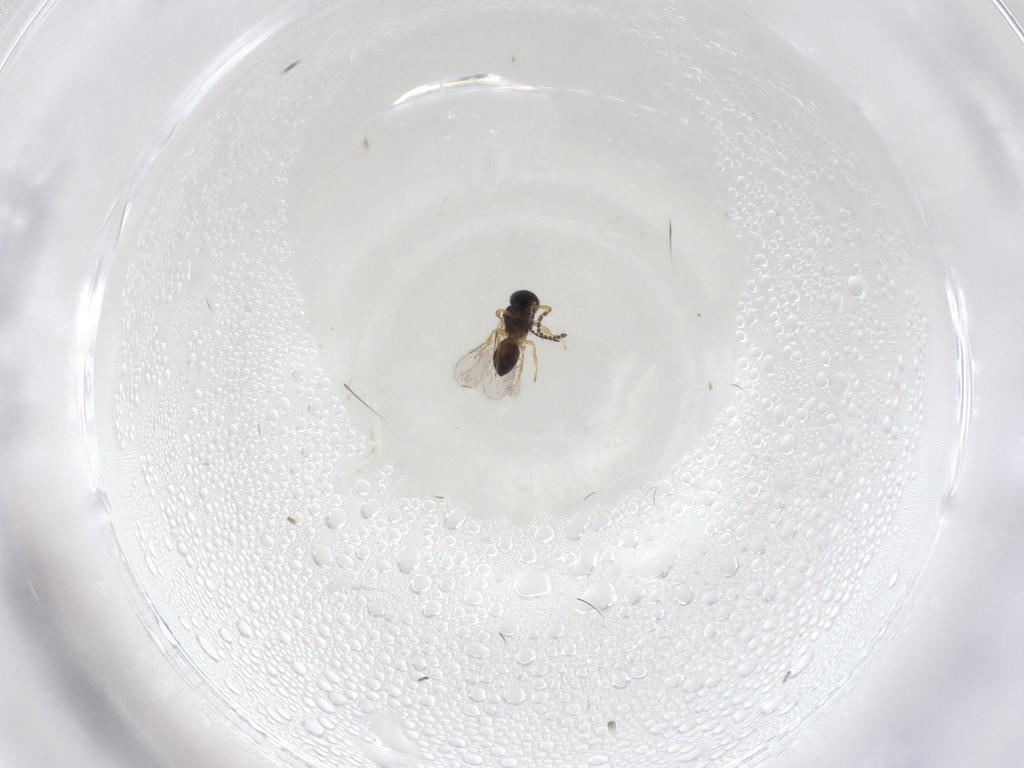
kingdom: Animalia
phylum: Arthropoda
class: Insecta
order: Hymenoptera
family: Scelionidae
